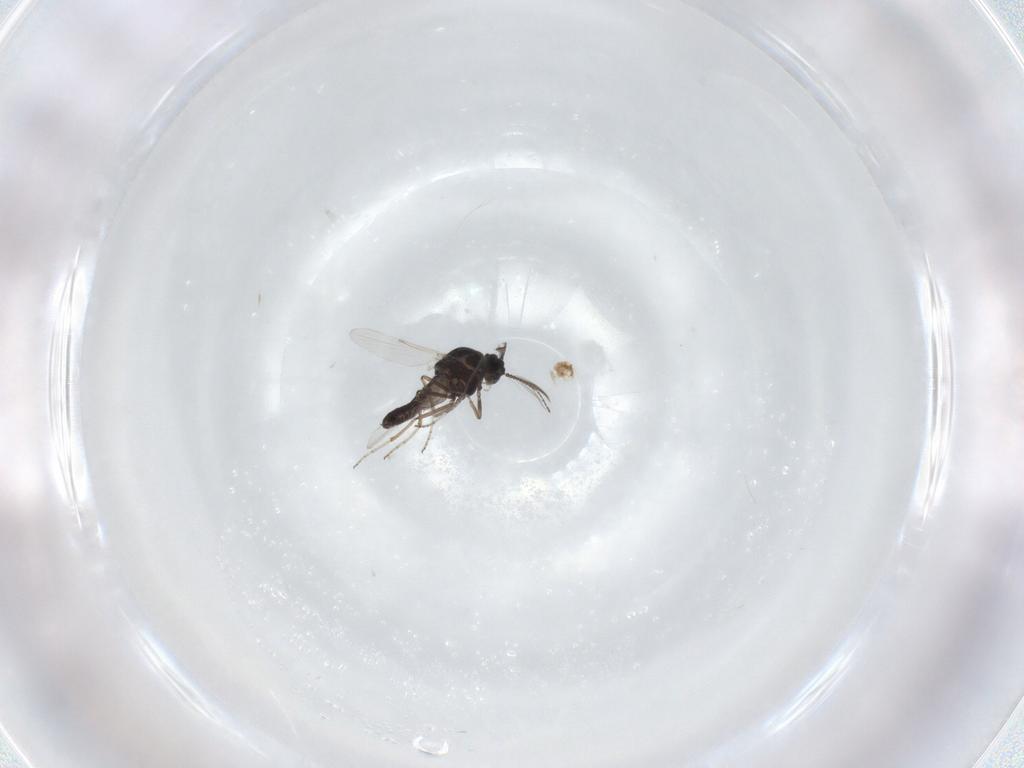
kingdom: Animalia
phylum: Arthropoda
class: Insecta
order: Diptera
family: Ceratopogonidae
